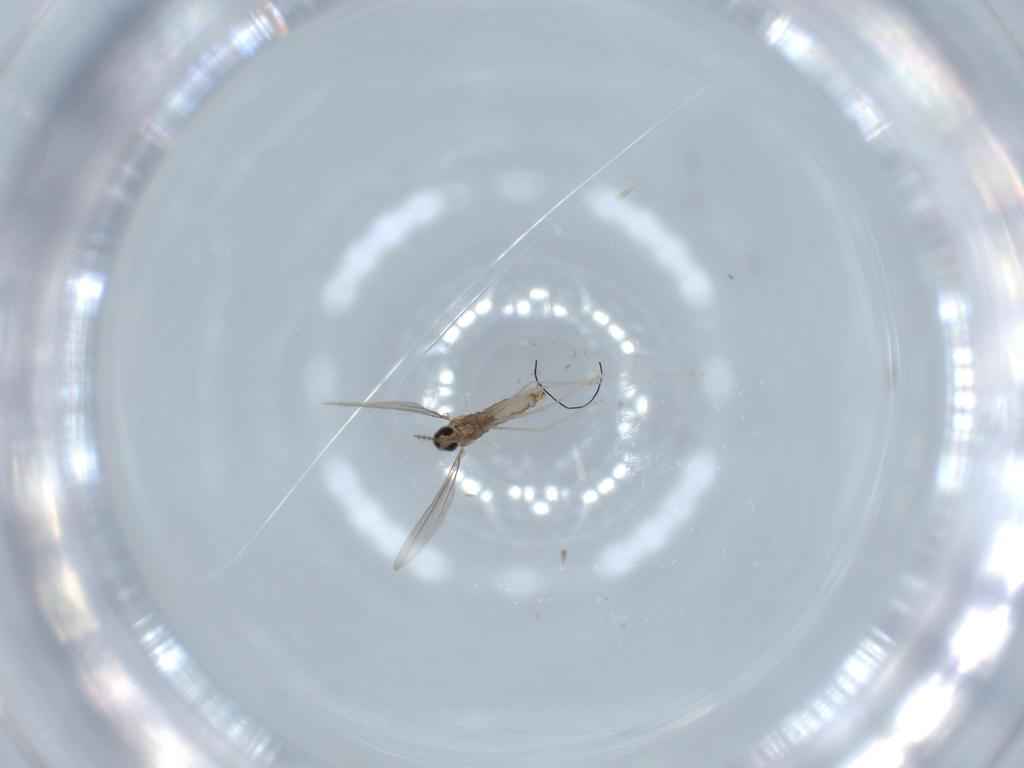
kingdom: Animalia
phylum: Arthropoda
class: Insecta
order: Diptera
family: Cecidomyiidae
